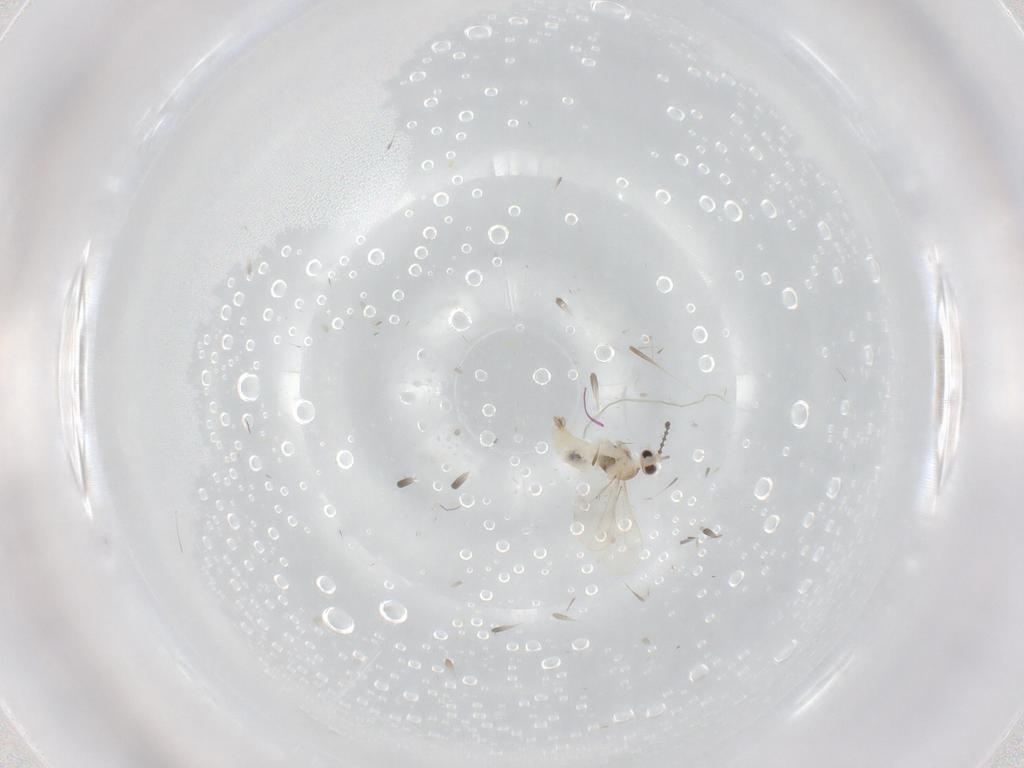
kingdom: Animalia
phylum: Arthropoda
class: Insecta
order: Diptera
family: Cecidomyiidae
